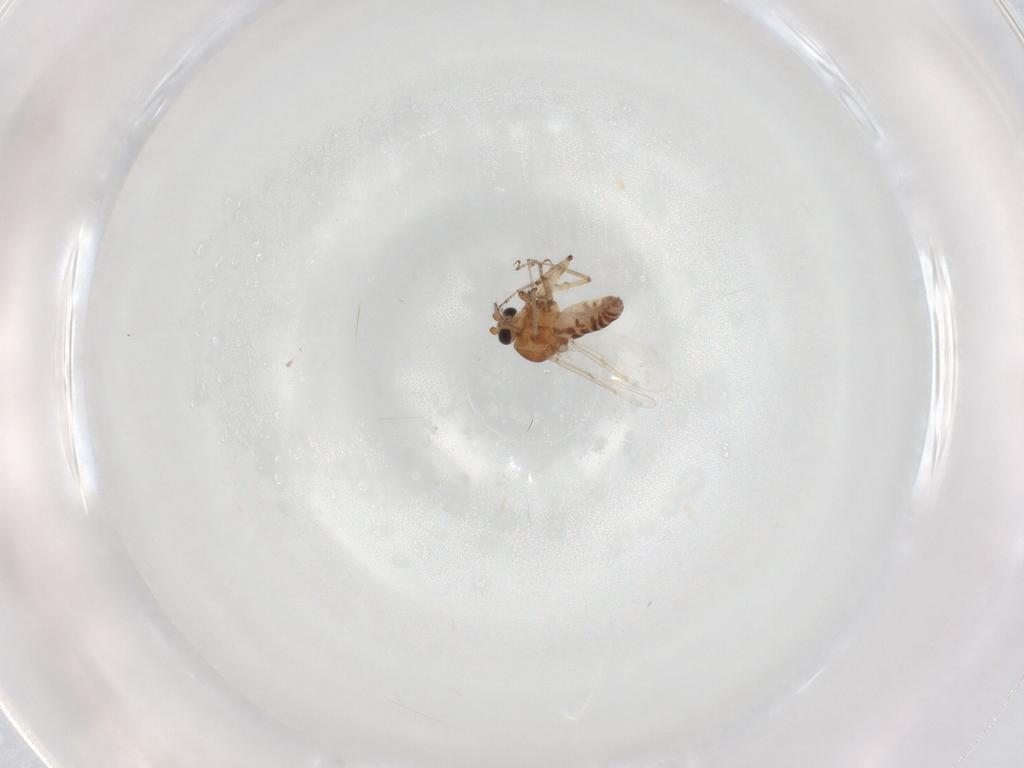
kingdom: Animalia
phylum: Arthropoda
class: Insecta
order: Diptera
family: Ceratopogonidae
